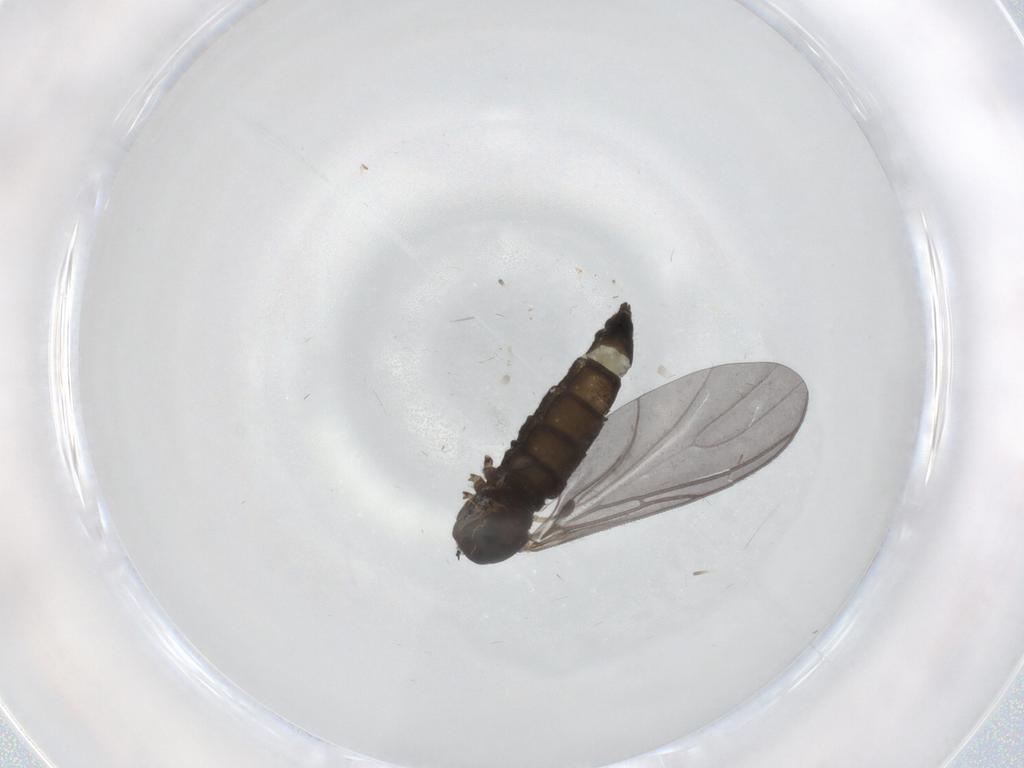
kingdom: Animalia
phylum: Arthropoda
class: Insecta
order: Diptera
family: Sciaridae
